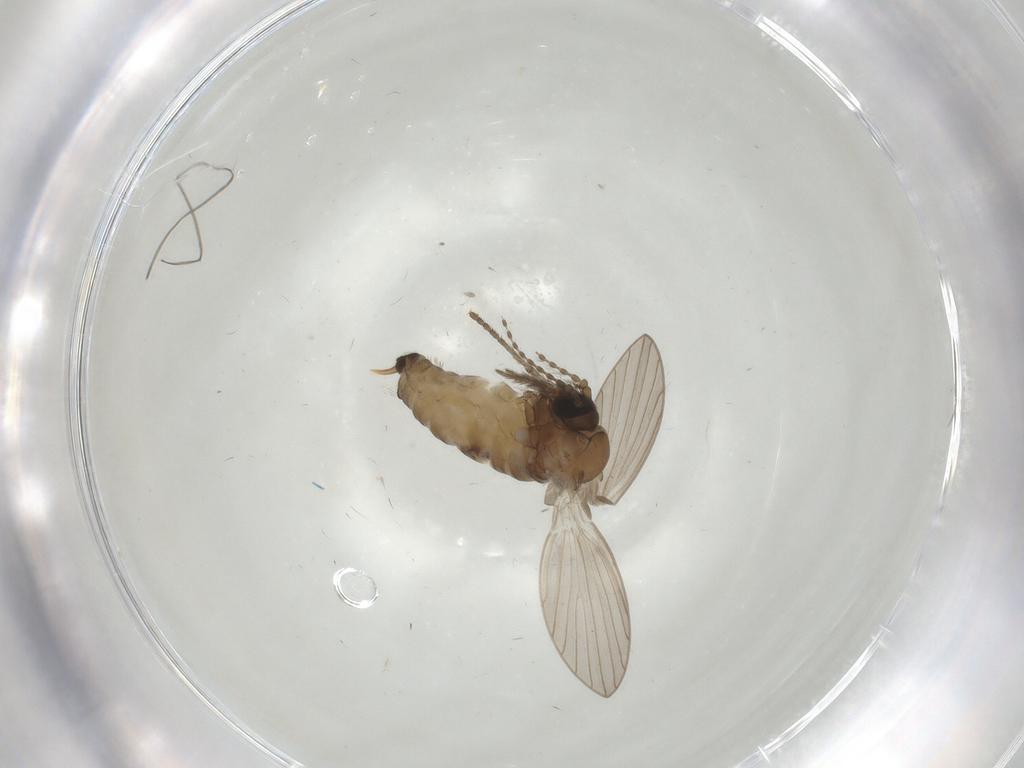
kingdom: Animalia
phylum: Arthropoda
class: Insecta
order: Diptera
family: Psychodidae
